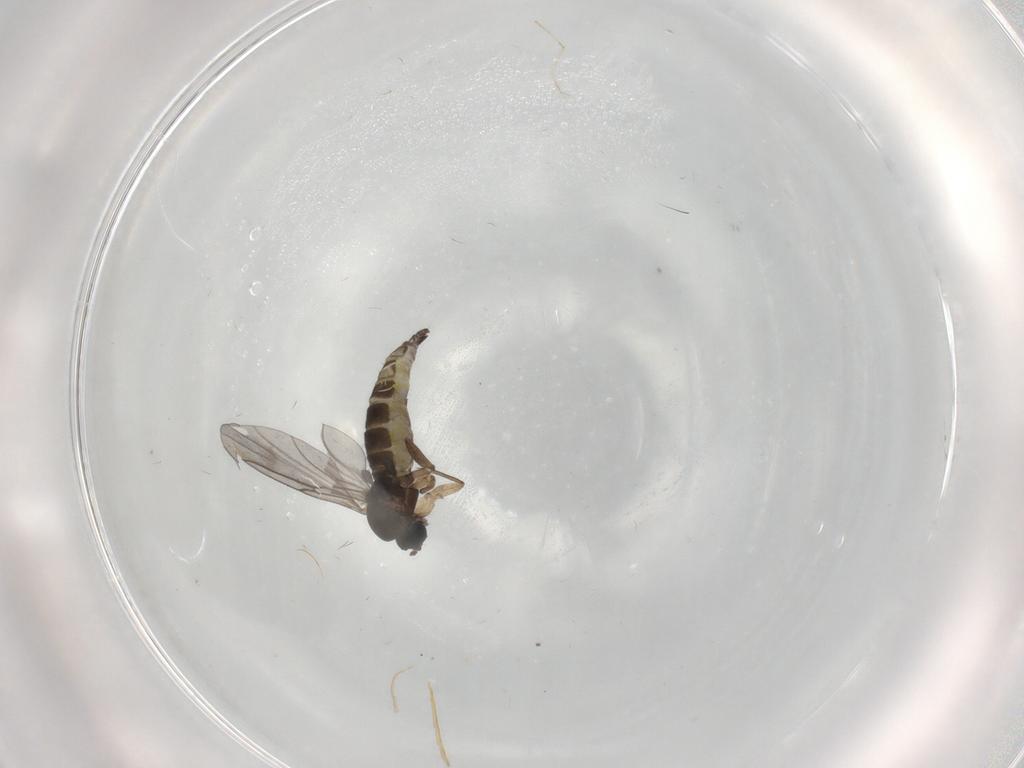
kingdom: Animalia
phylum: Arthropoda
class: Insecta
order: Diptera
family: Sciaridae
